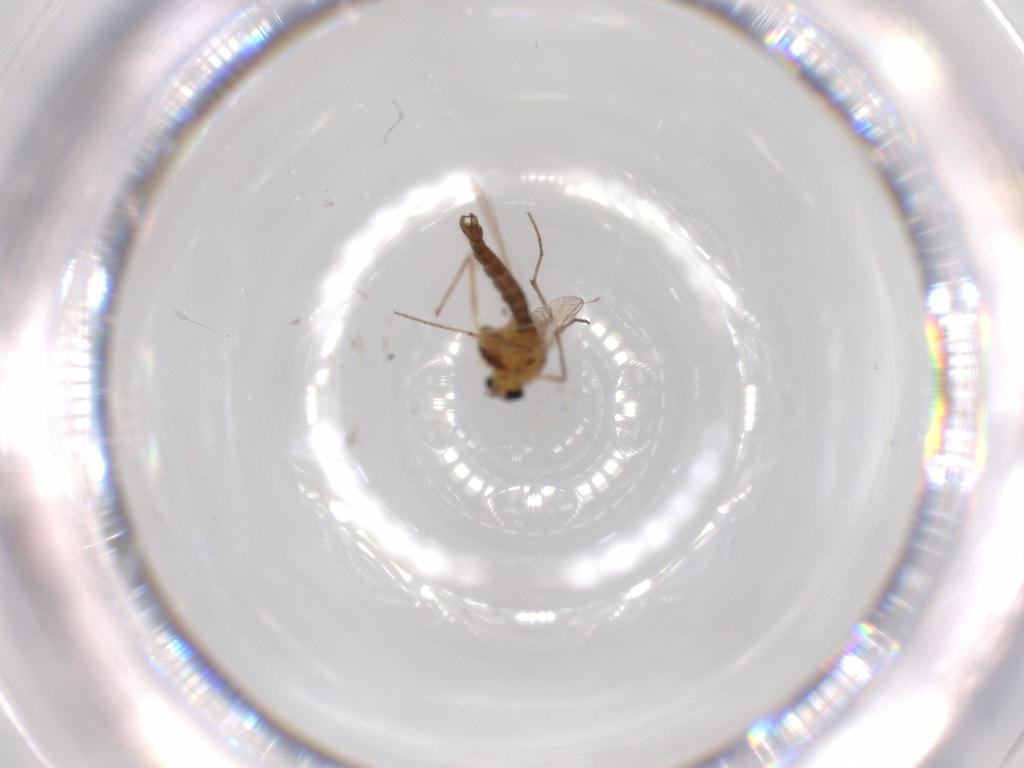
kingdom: Animalia
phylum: Arthropoda
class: Insecta
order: Diptera
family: Chironomidae
